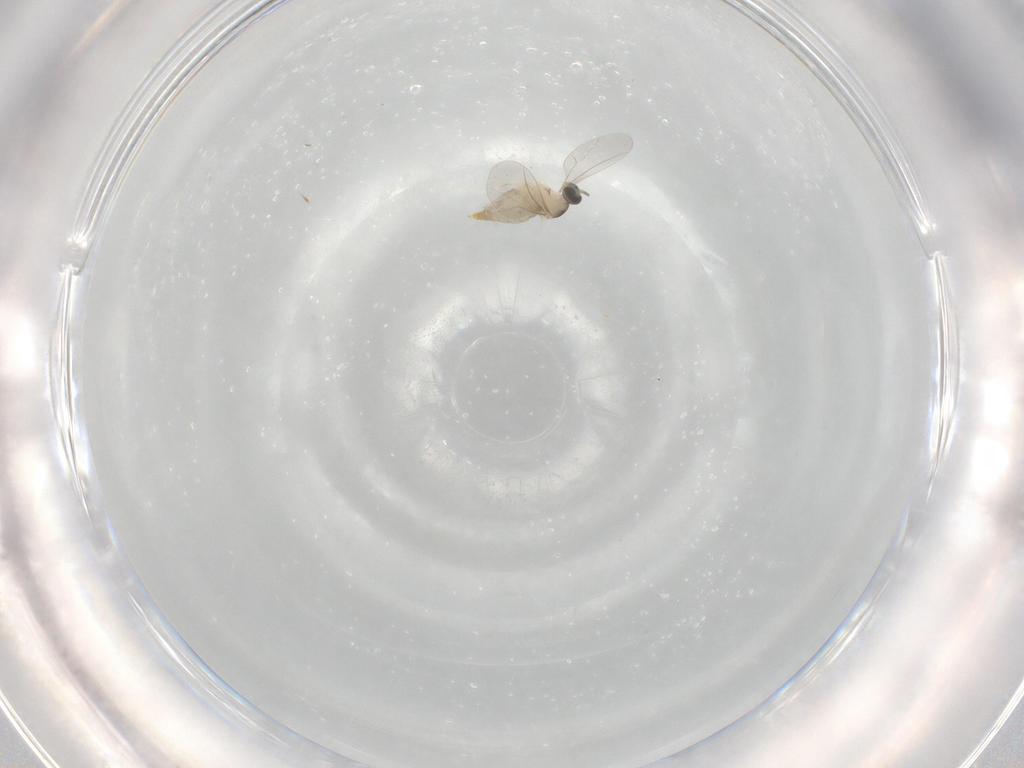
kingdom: Animalia
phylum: Arthropoda
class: Insecta
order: Diptera
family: Cecidomyiidae
